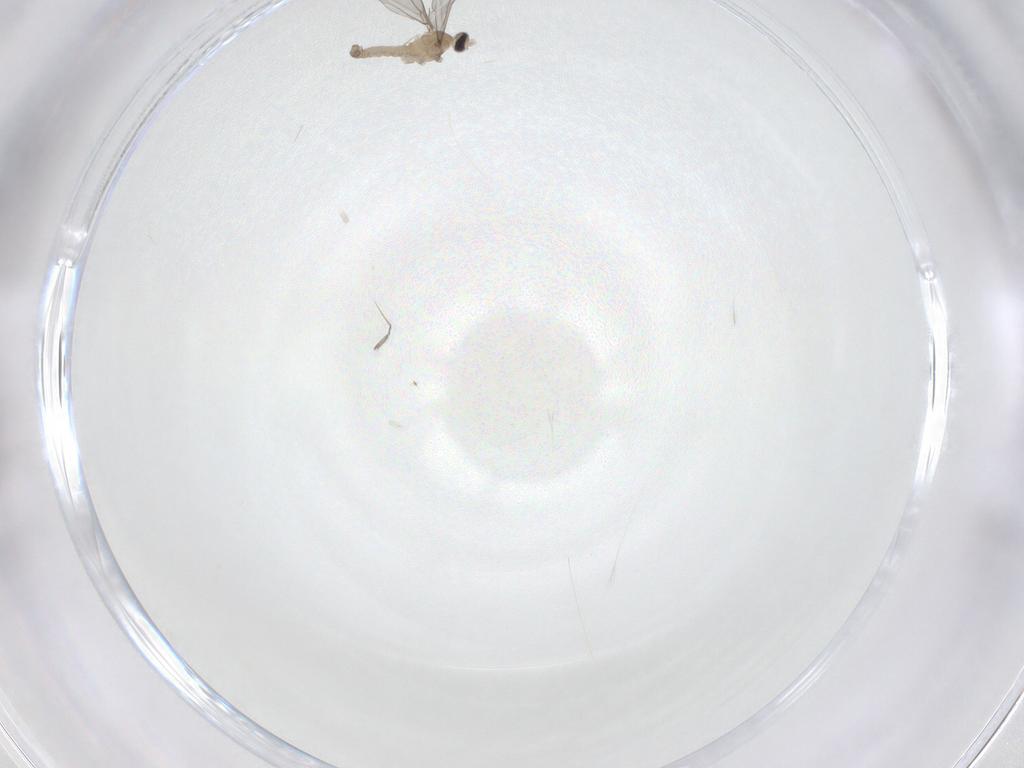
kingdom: Animalia
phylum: Arthropoda
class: Insecta
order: Diptera
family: Cecidomyiidae
